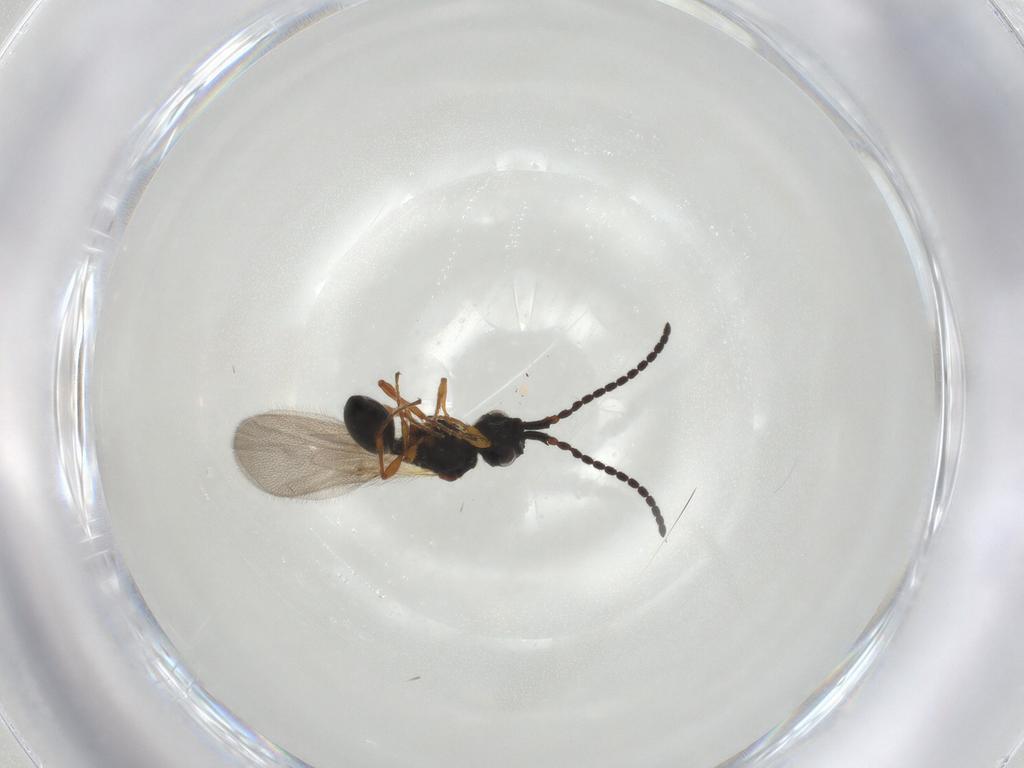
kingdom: Animalia
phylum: Arthropoda
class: Insecta
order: Hymenoptera
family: Diapriidae
